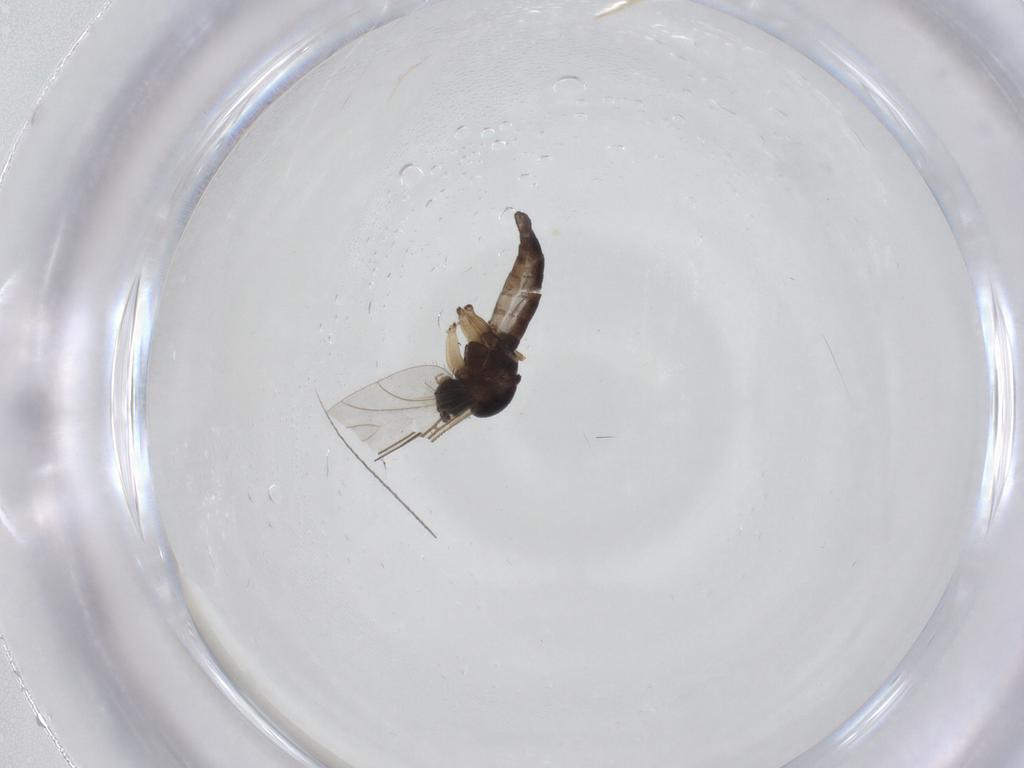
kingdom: Animalia
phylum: Arthropoda
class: Insecta
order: Diptera
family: Sciaridae
